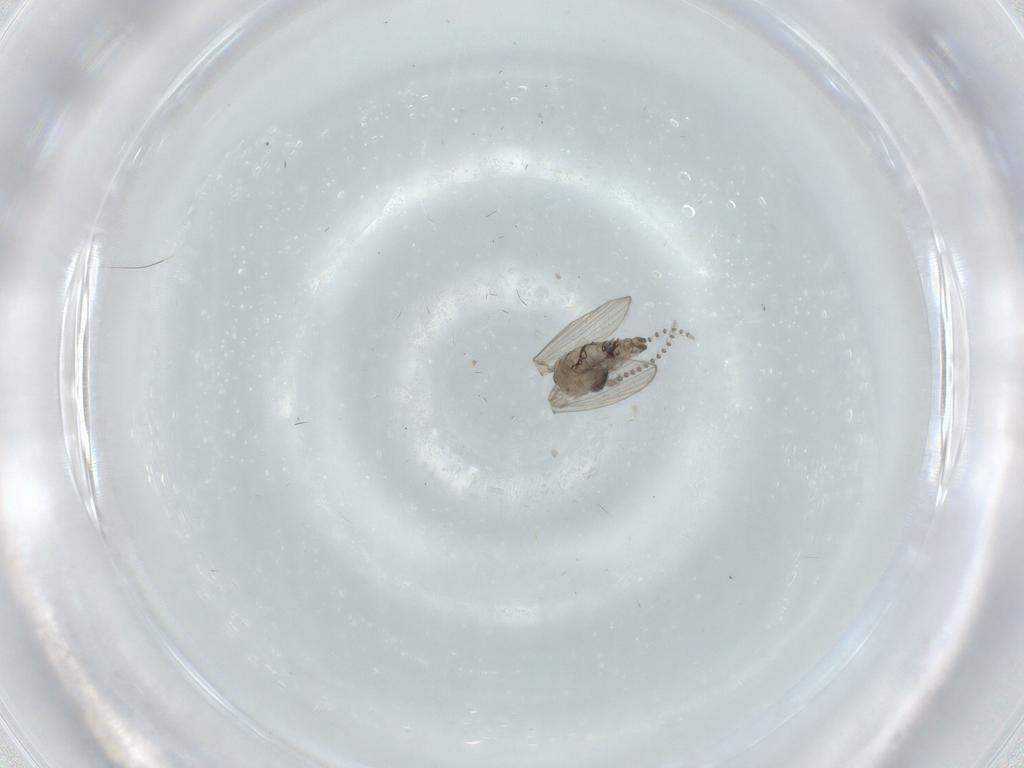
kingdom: Animalia
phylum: Arthropoda
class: Insecta
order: Diptera
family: Psychodidae
